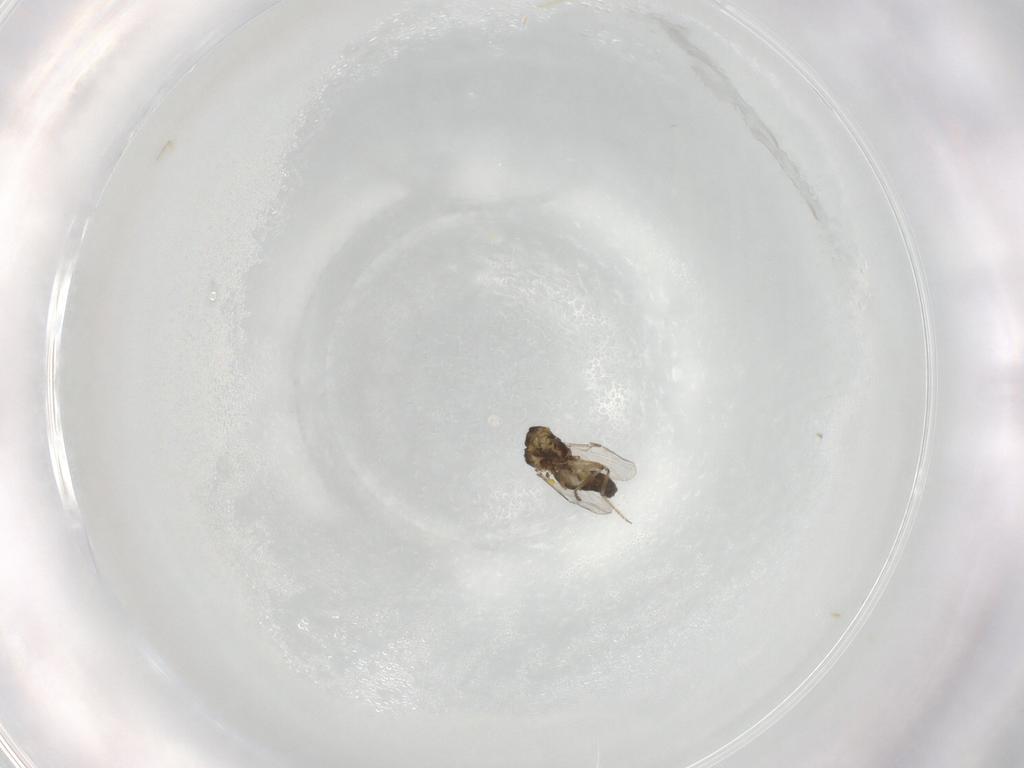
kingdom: Animalia
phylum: Arthropoda
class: Insecta
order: Diptera
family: Ceratopogonidae
